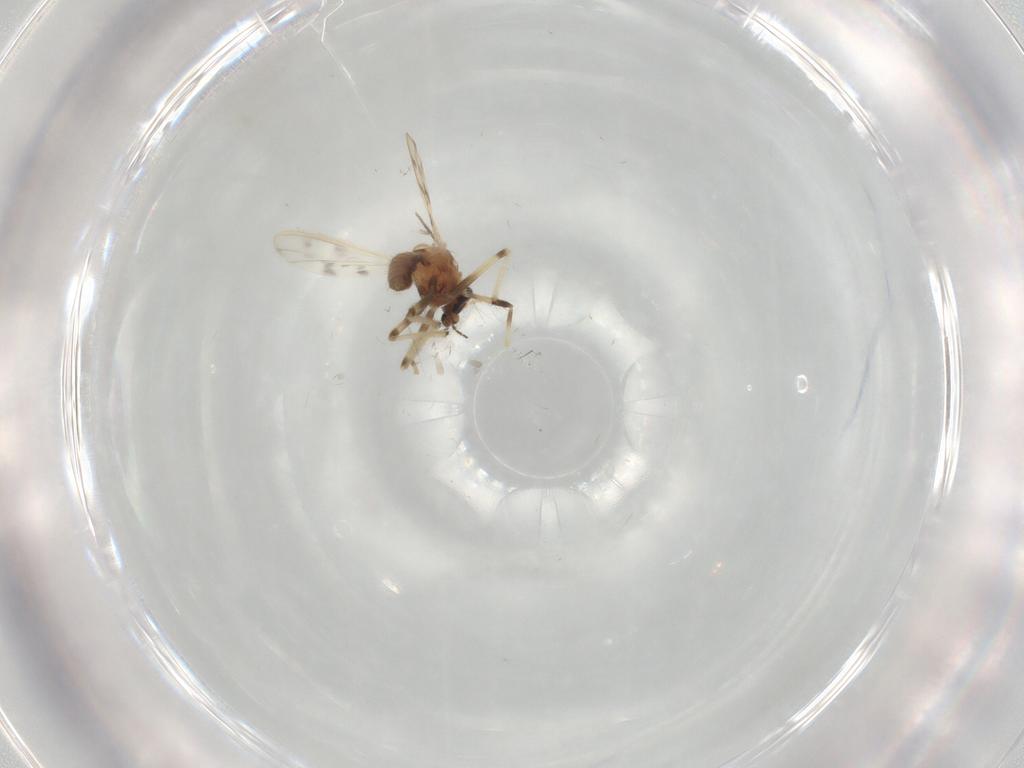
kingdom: Animalia
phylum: Arthropoda
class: Insecta
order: Diptera
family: Chironomidae
